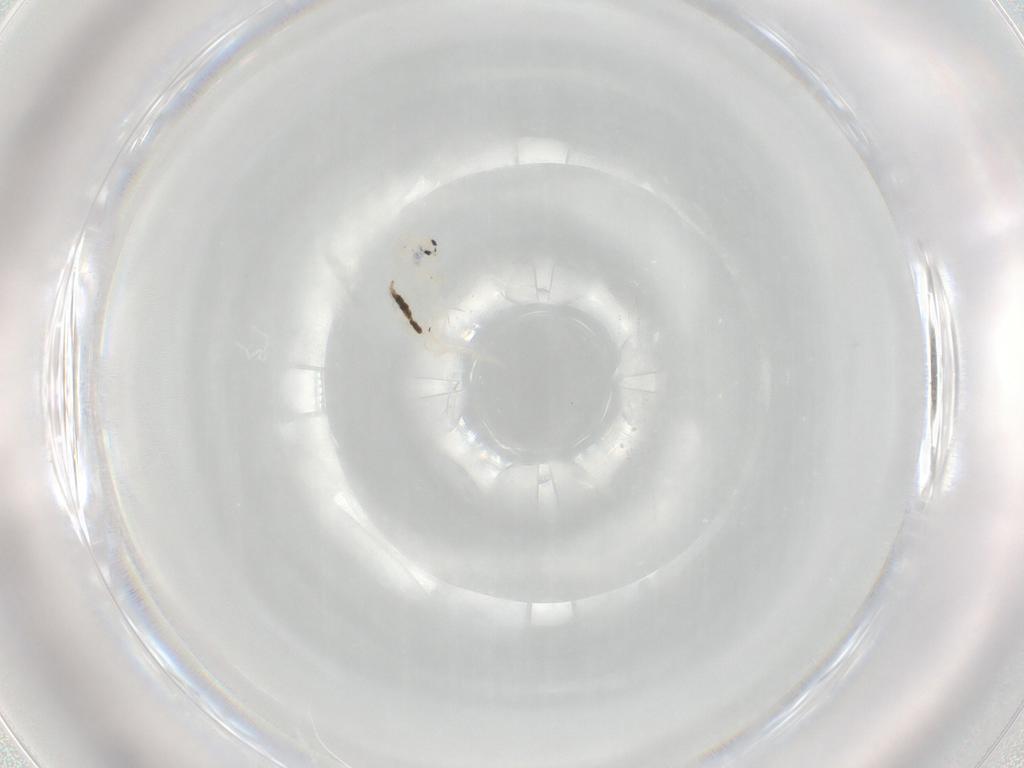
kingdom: Animalia
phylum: Arthropoda
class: Collembola
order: Entomobryomorpha
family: Entomobryidae
